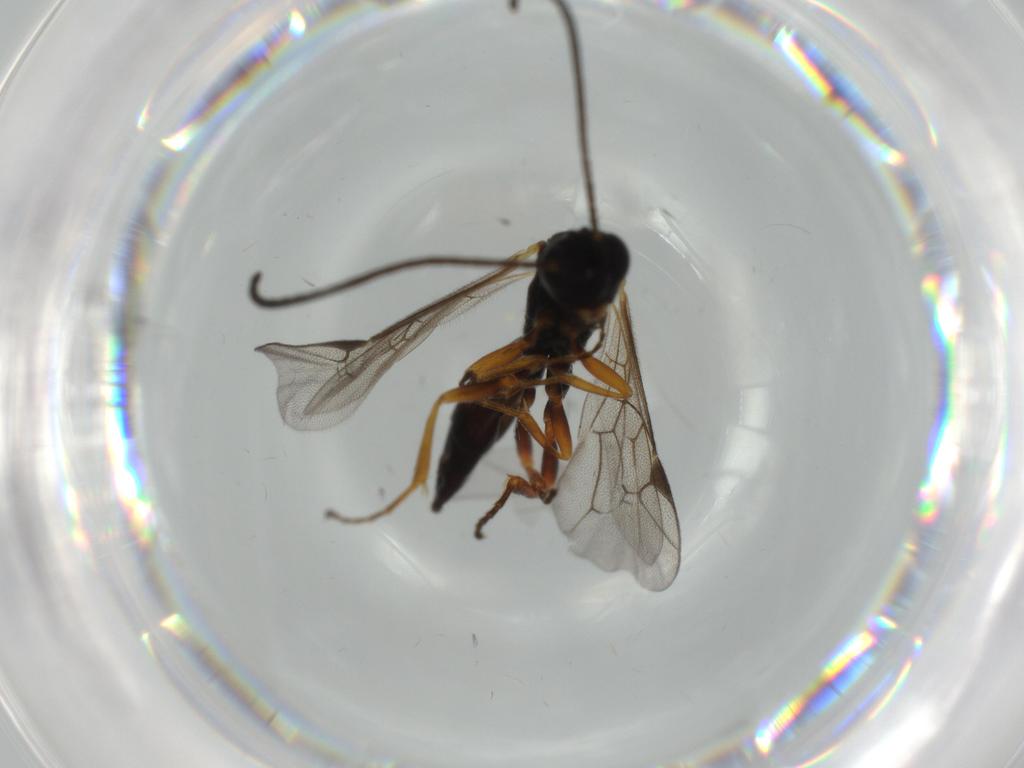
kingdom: Animalia
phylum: Arthropoda
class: Insecta
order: Hymenoptera
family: Ichneumonidae
